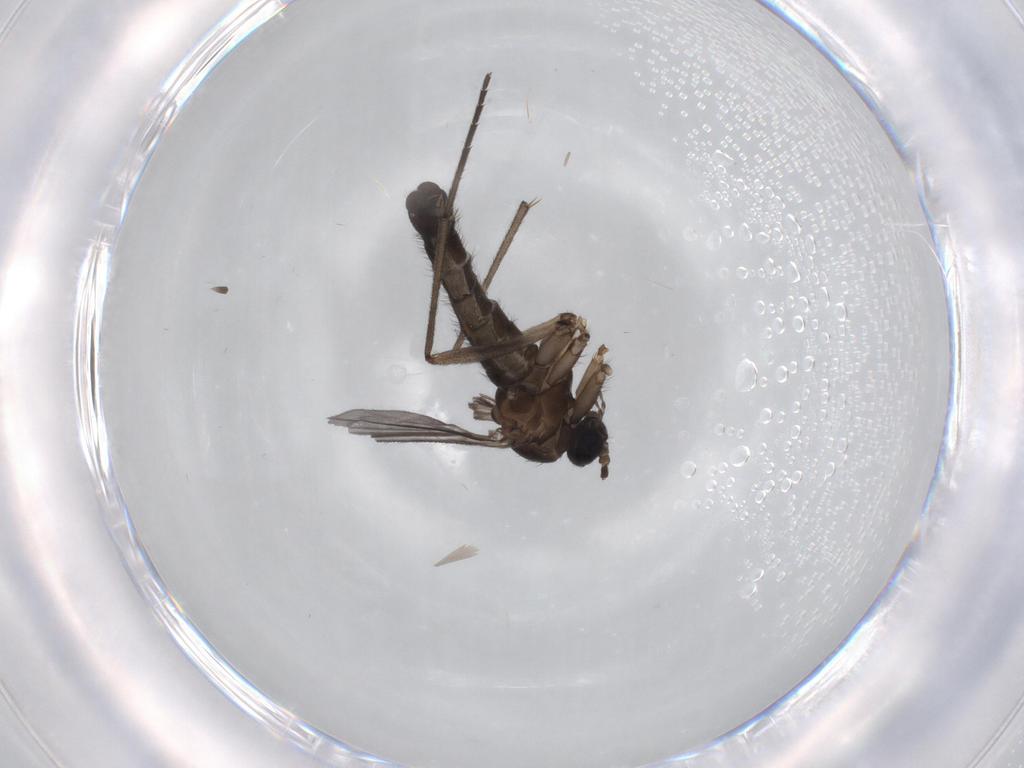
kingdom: Animalia
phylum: Arthropoda
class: Insecta
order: Diptera
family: Sciaridae
